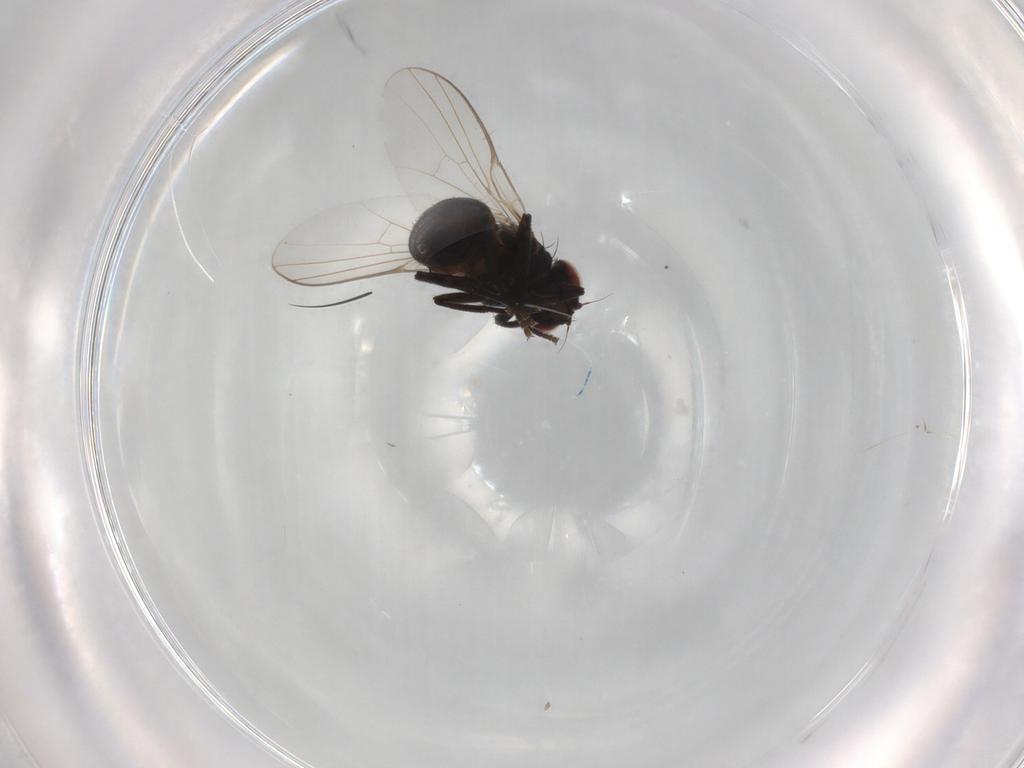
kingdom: Animalia
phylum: Arthropoda
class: Insecta
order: Diptera
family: Agromyzidae
